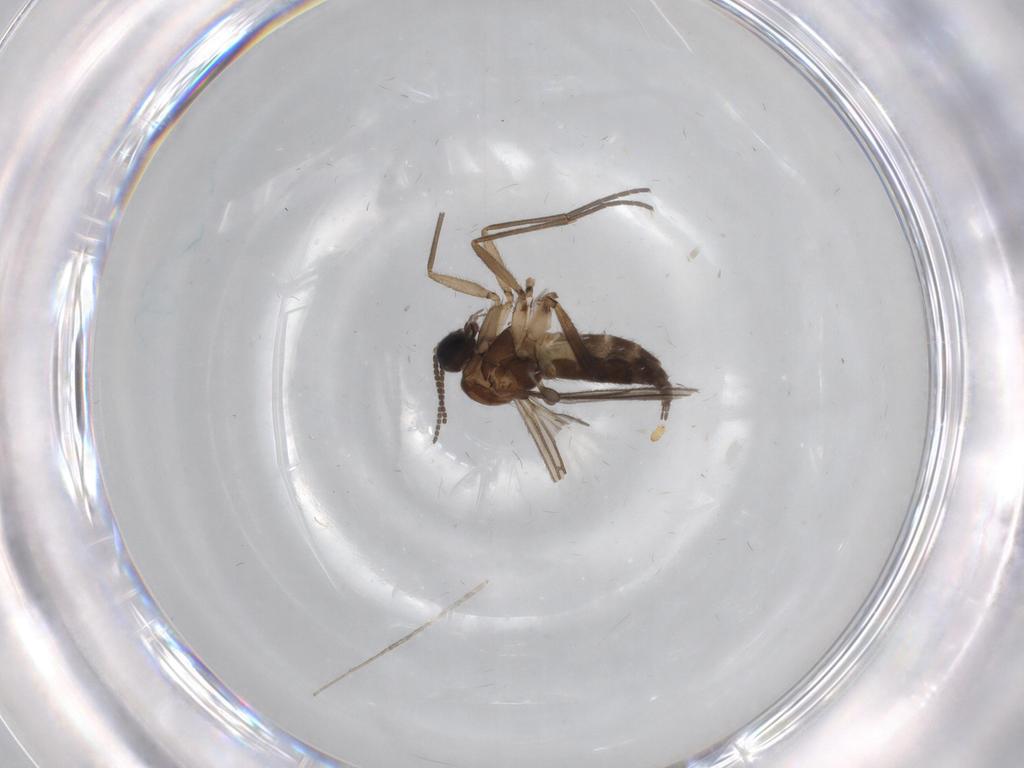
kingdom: Animalia
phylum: Arthropoda
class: Insecta
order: Diptera
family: Sciaridae
